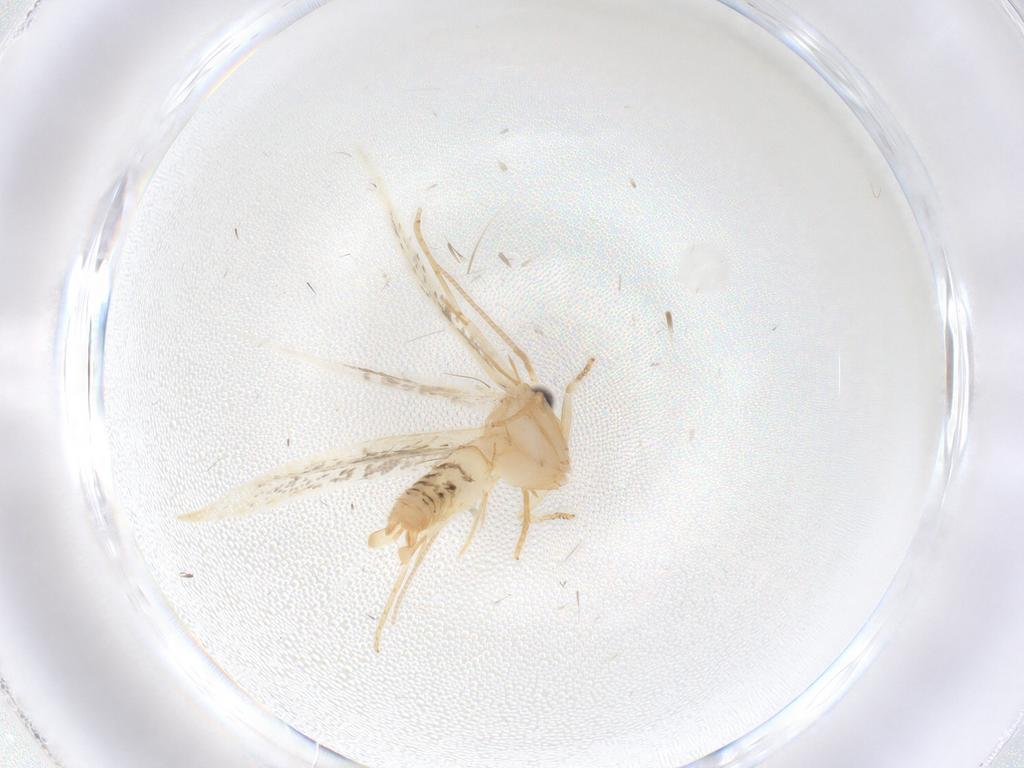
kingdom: Animalia
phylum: Arthropoda
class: Insecta
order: Lepidoptera
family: Tineidae
